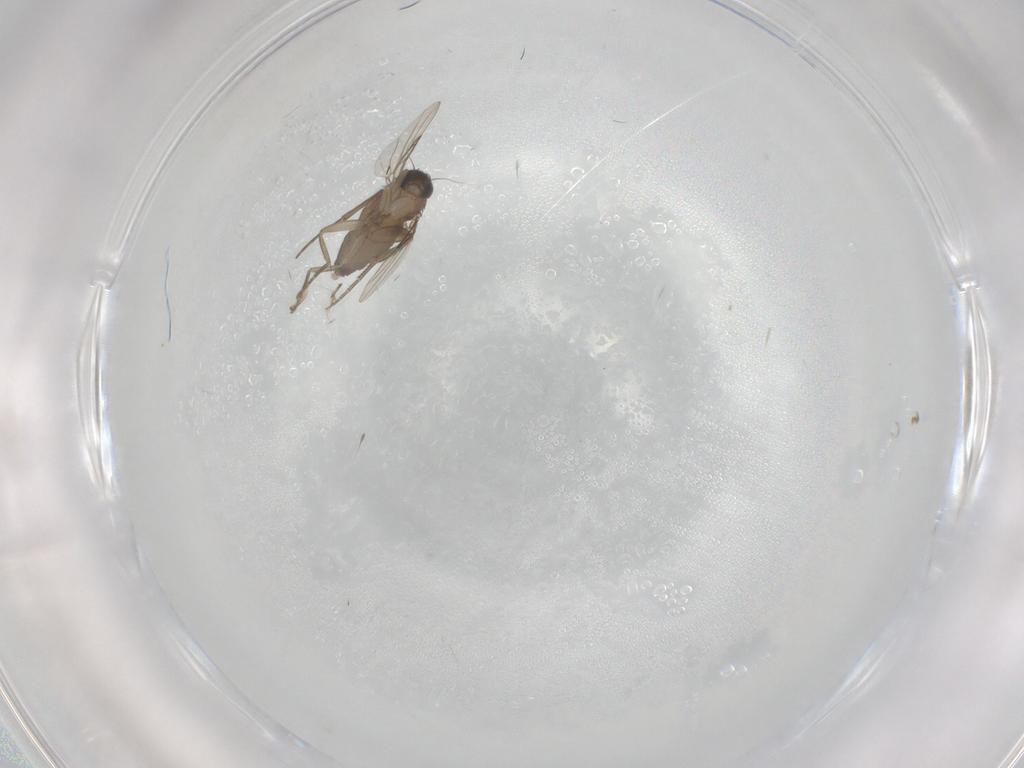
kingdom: Animalia
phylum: Arthropoda
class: Insecta
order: Diptera
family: Phoridae
